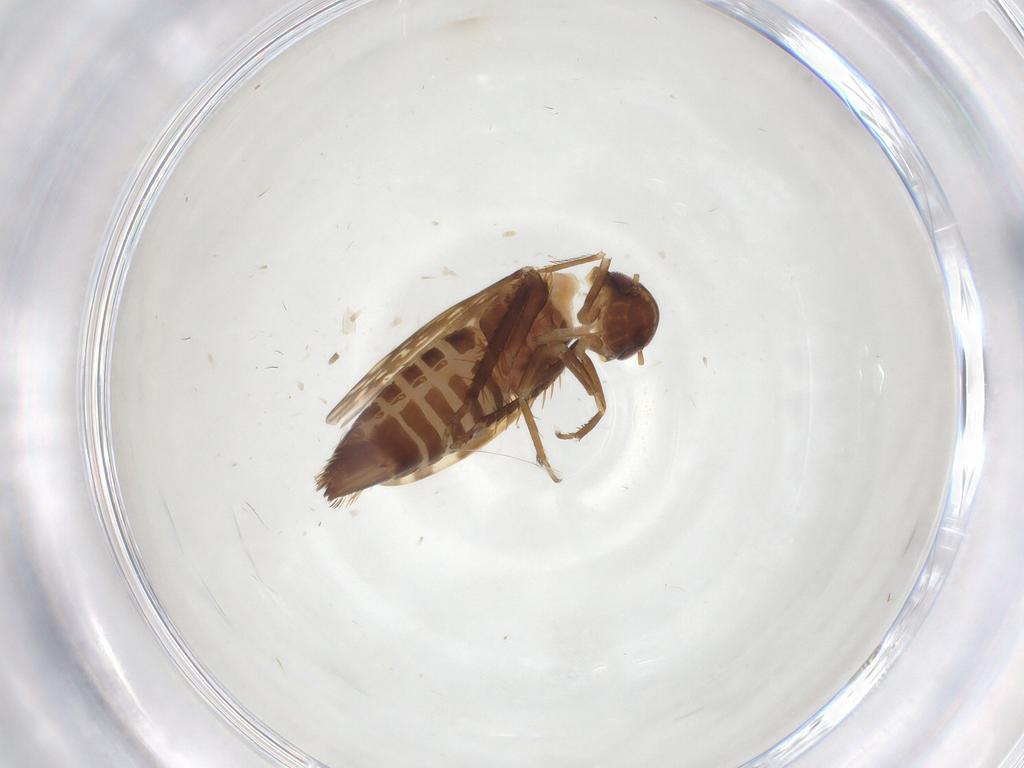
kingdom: Animalia
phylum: Arthropoda
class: Insecta
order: Hemiptera
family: Cicadellidae
